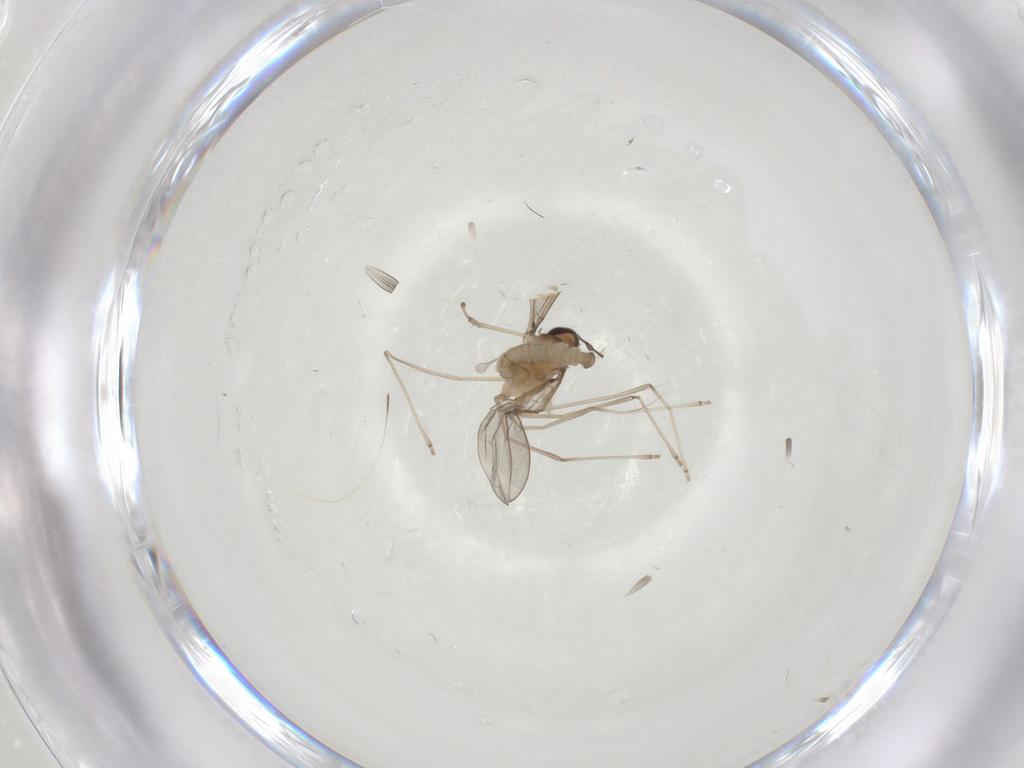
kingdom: Animalia
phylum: Arthropoda
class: Insecta
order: Diptera
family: Cecidomyiidae
